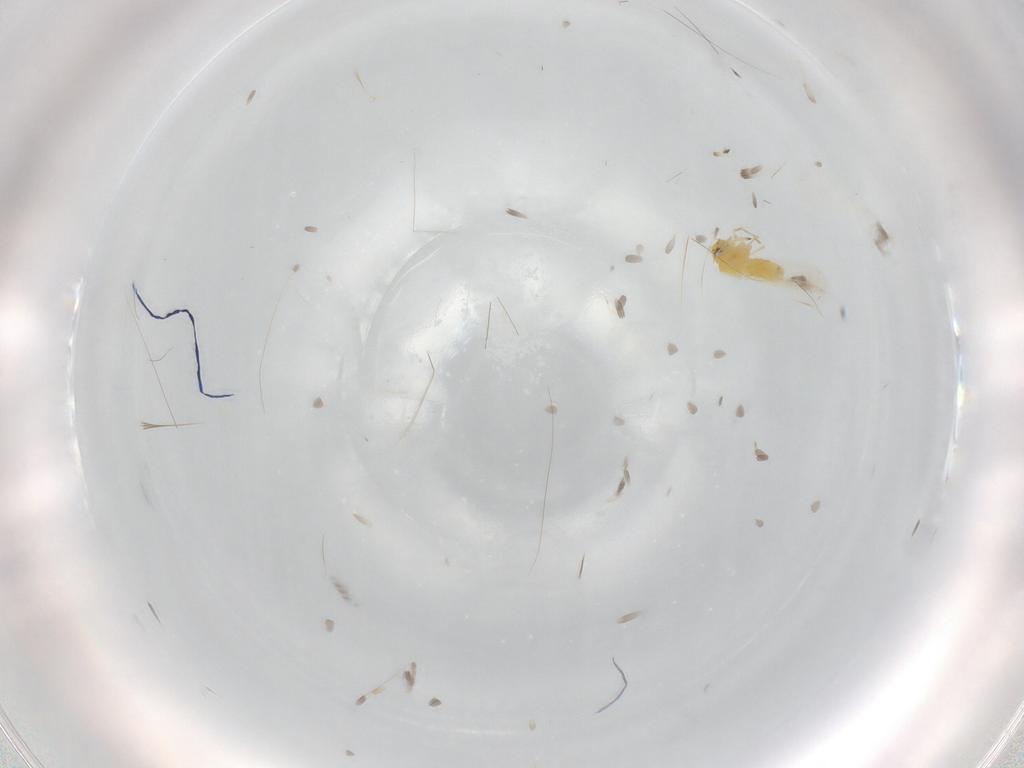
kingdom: Animalia
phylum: Arthropoda
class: Insecta
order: Hemiptera
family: Aleyrodidae
